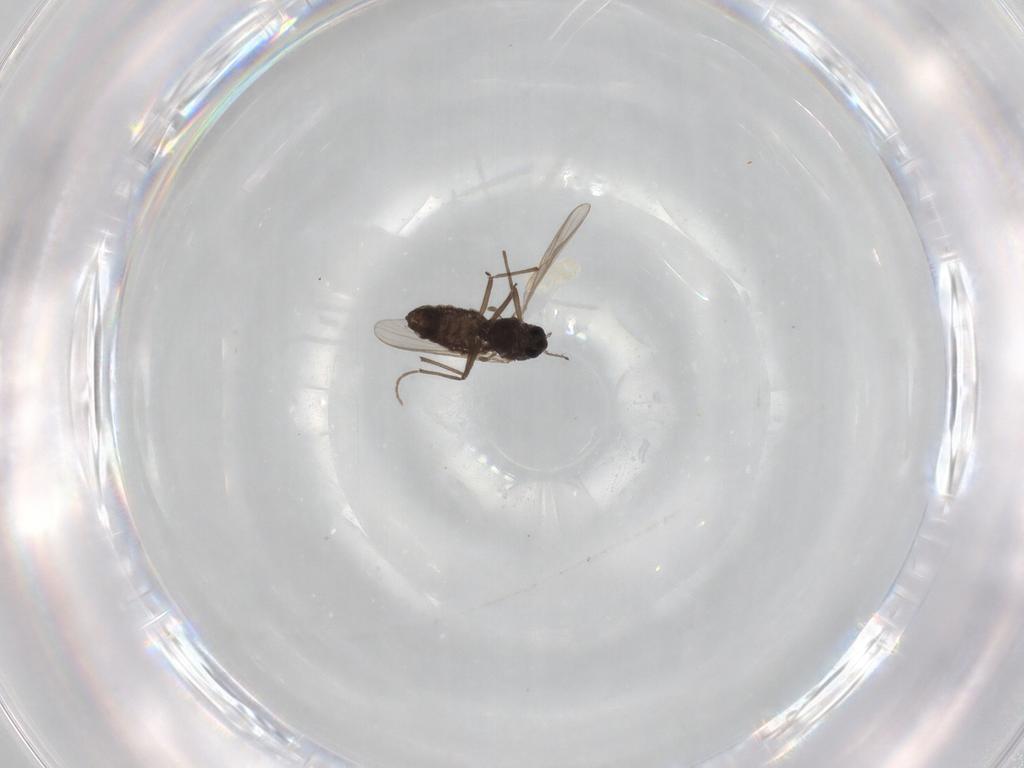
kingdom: Animalia
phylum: Arthropoda
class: Insecta
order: Diptera
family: Chironomidae
